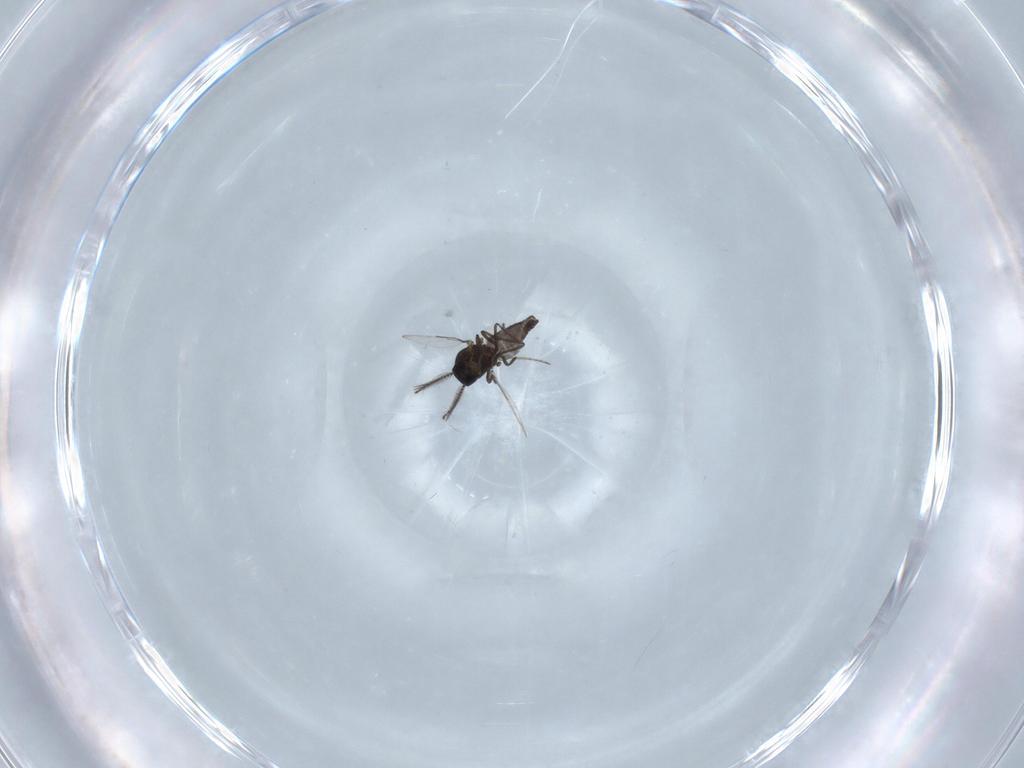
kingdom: Animalia
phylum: Arthropoda
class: Insecta
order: Diptera
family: Ceratopogonidae
